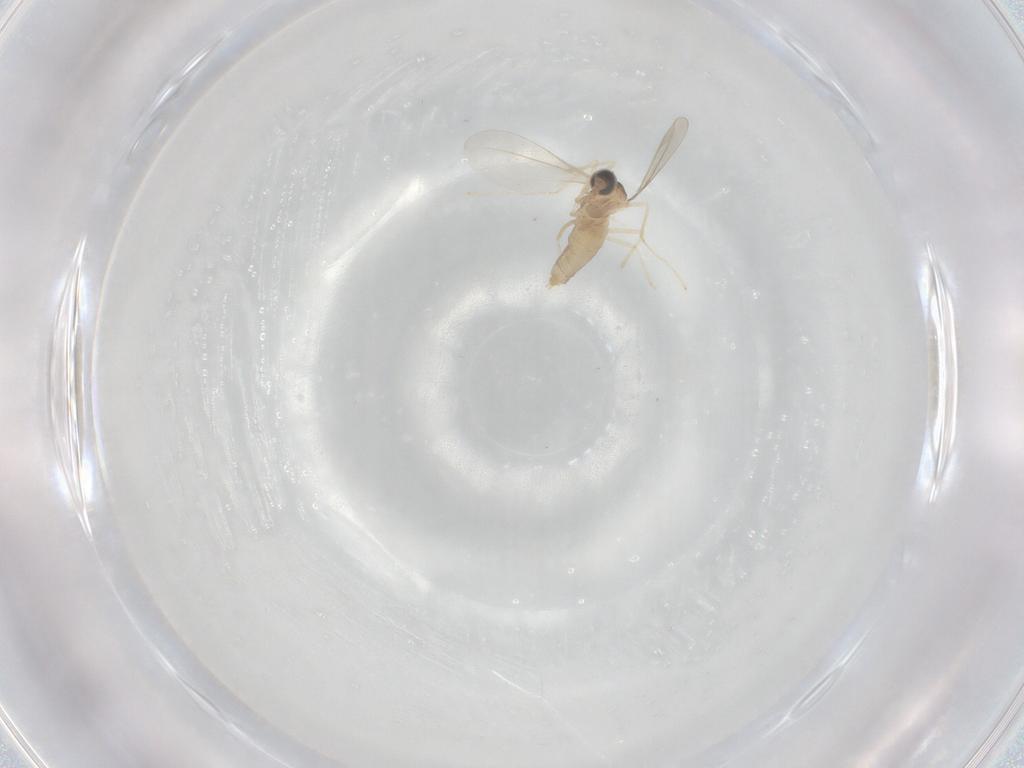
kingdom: Animalia
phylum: Arthropoda
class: Insecta
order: Diptera
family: Cecidomyiidae
